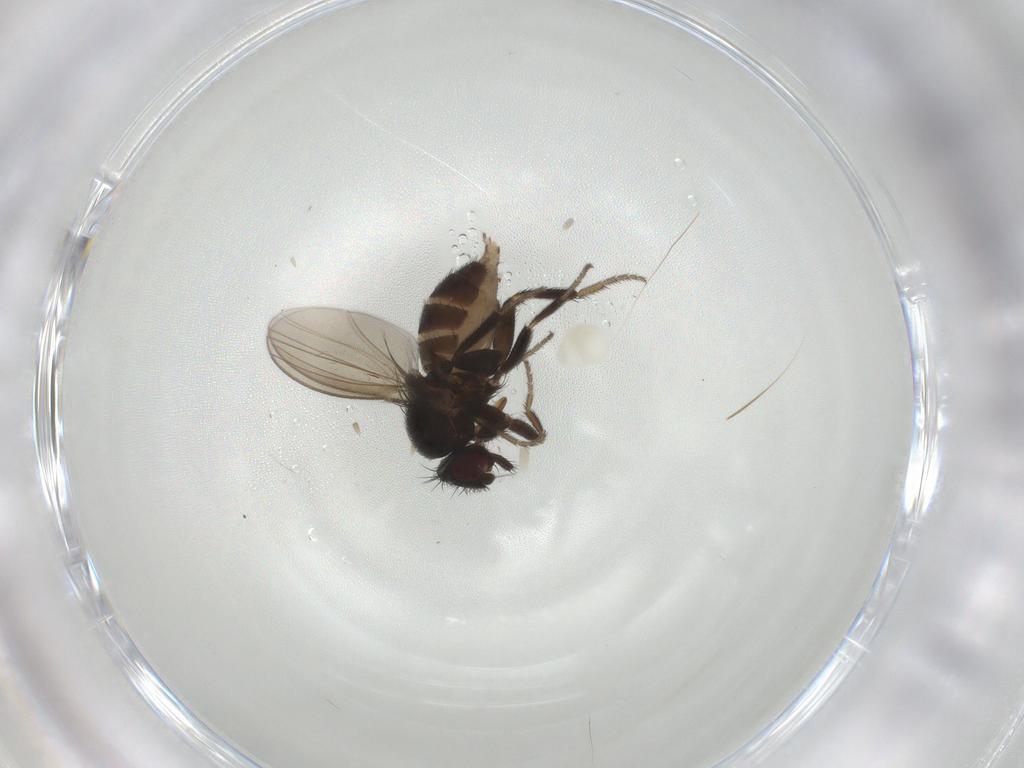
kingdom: Animalia
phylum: Arthropoda
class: Insecta
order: Diptera
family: Milichiidae
